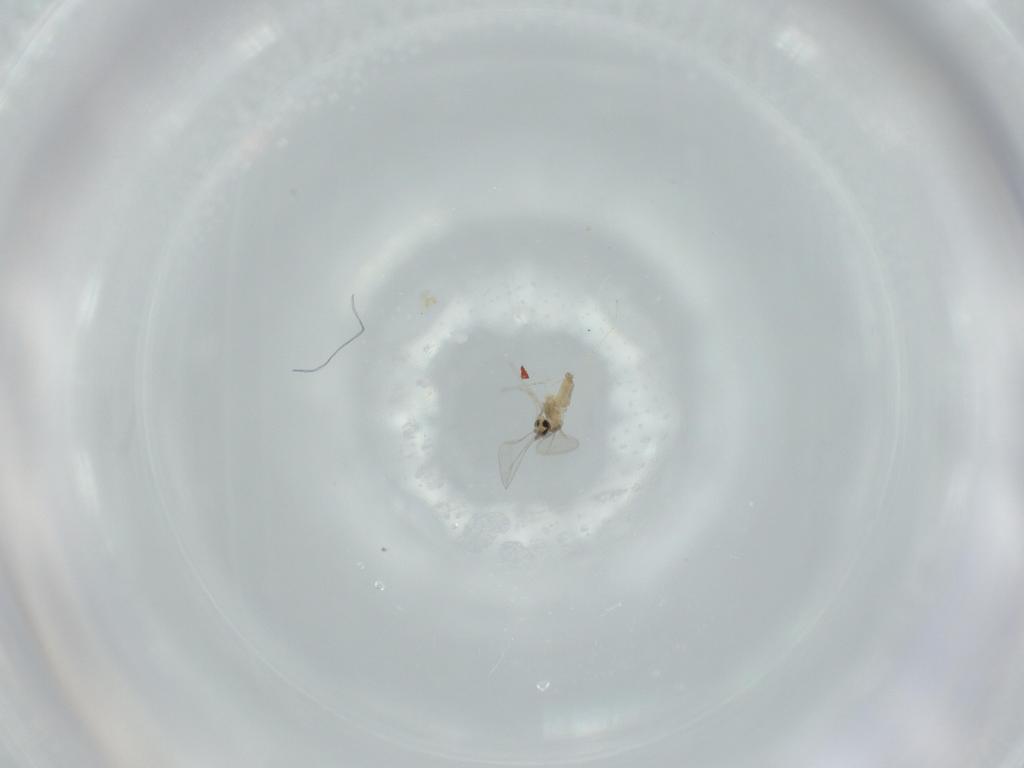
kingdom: Animalia
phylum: Arthropoda
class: Insecta
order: Diptera
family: Cecidomyiidae
